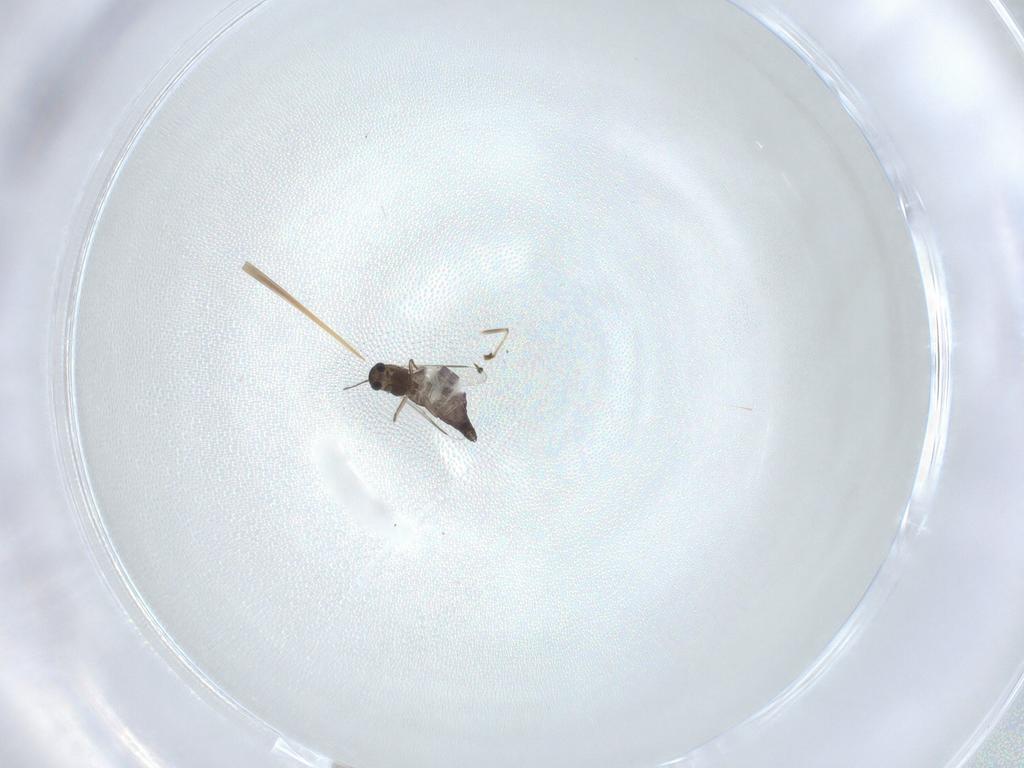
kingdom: Animalia
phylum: Arthropoda
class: Insecta
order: Diptera
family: Chironomidae
